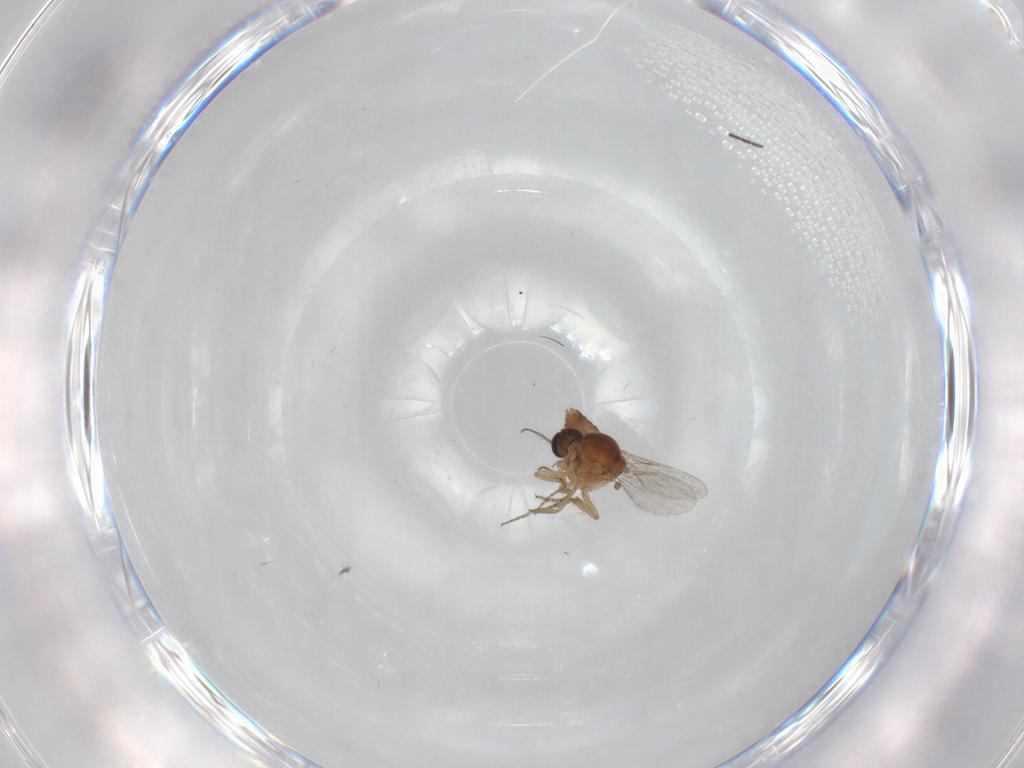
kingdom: Animalia
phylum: Arthropoda
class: Insecta
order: Diptera
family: Ceratopogonidae
